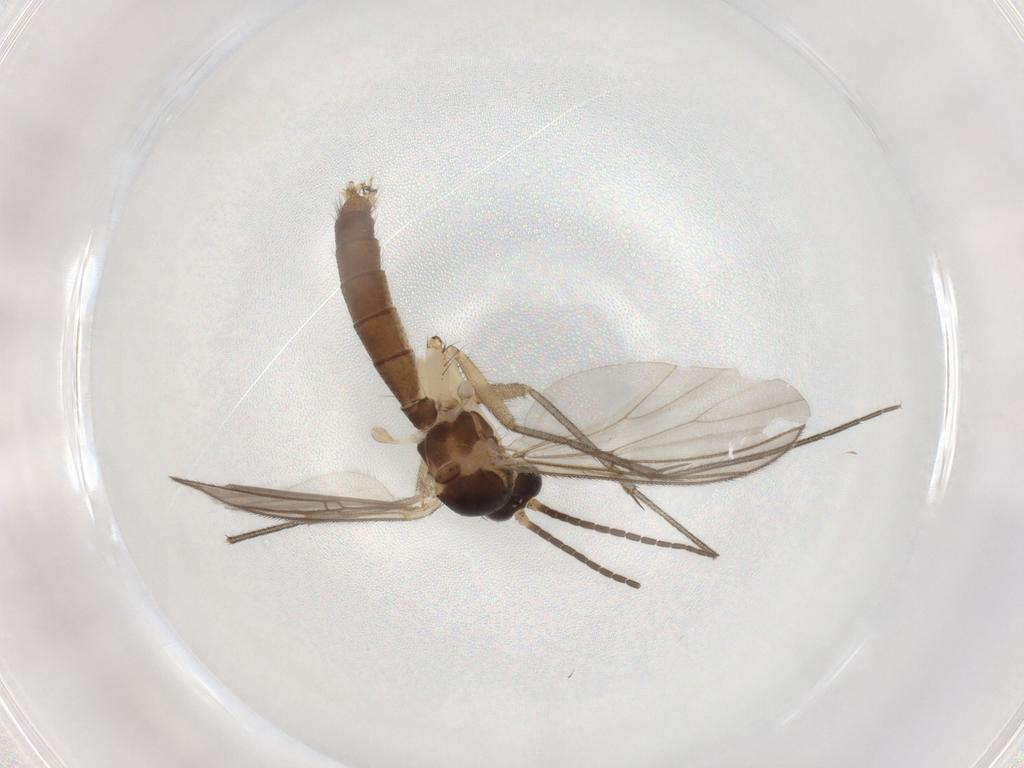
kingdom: Animalia
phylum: Arthropoda
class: Insecta
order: Diptera
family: Mycetophilidae
